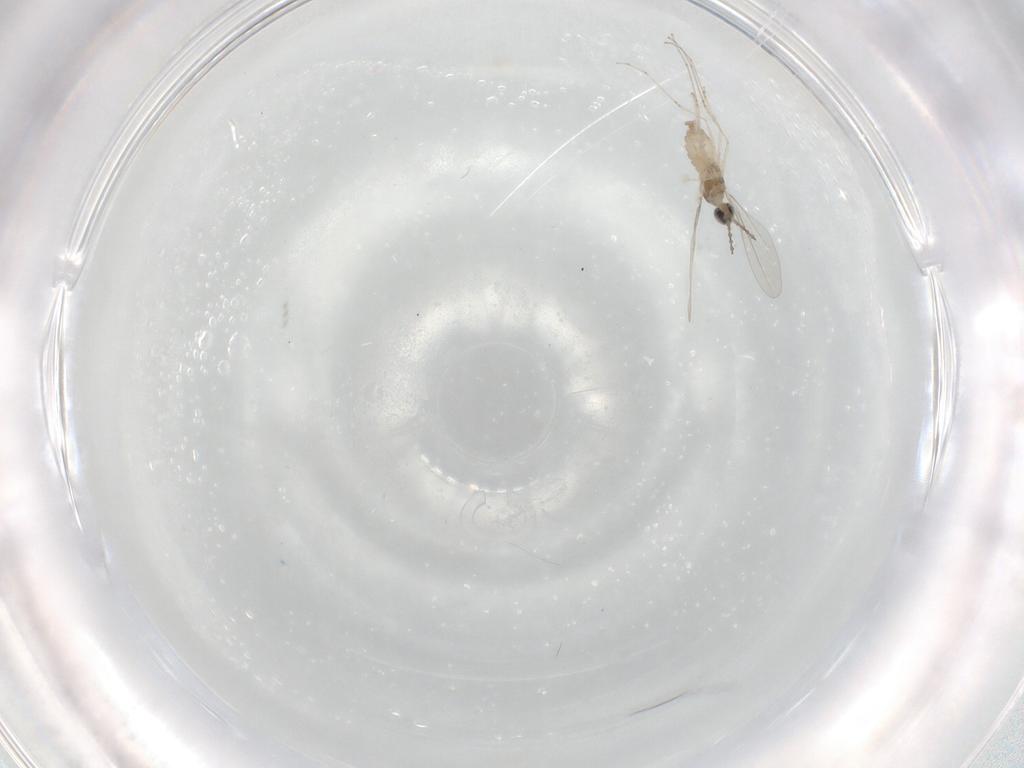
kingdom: Animalia
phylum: Arthropoda
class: Insecta
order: Diptera
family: Cecidomyiidae
